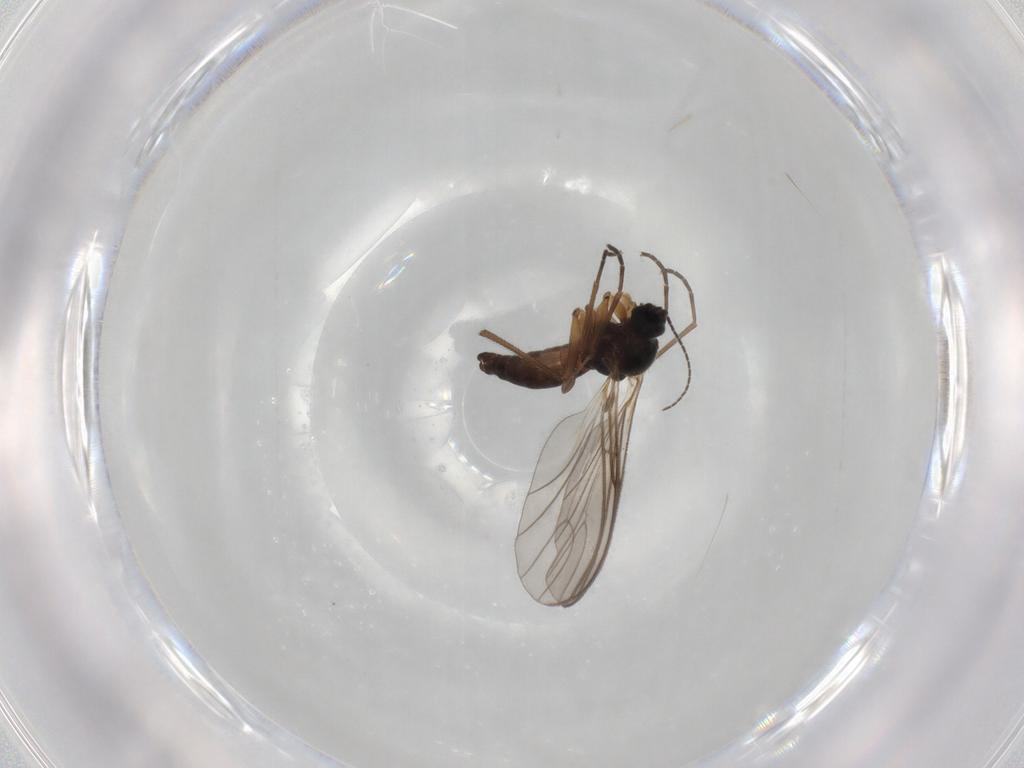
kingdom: Animalia
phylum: Arthropoda
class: Insecta
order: Diptera
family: Sciaridae
